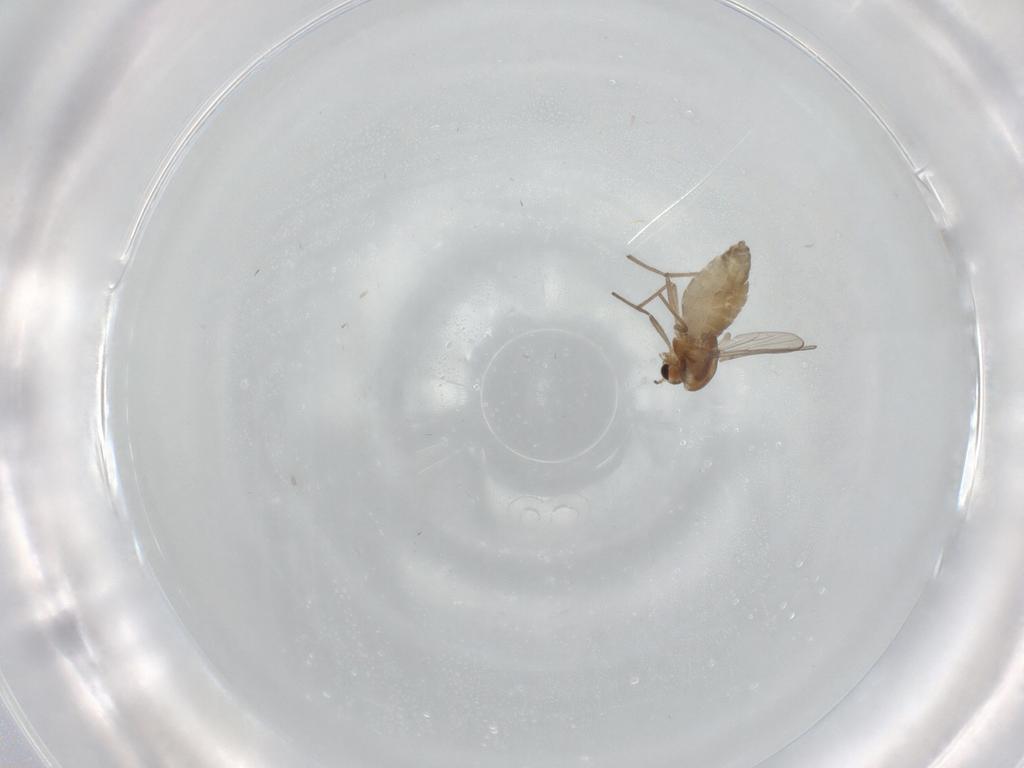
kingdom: Animalia
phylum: Arthropoda
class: Insecta
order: Diptera
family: Chironomidae
